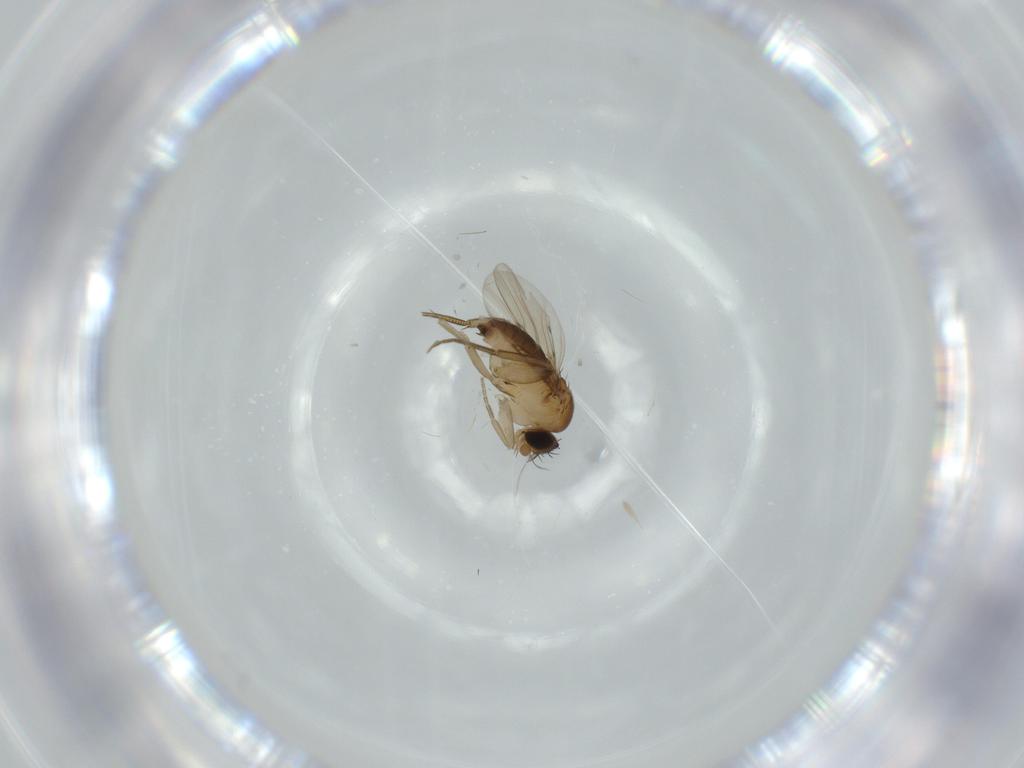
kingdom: Animalia
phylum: Arthropoda
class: Insecta
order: Diptera
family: Phoridae
